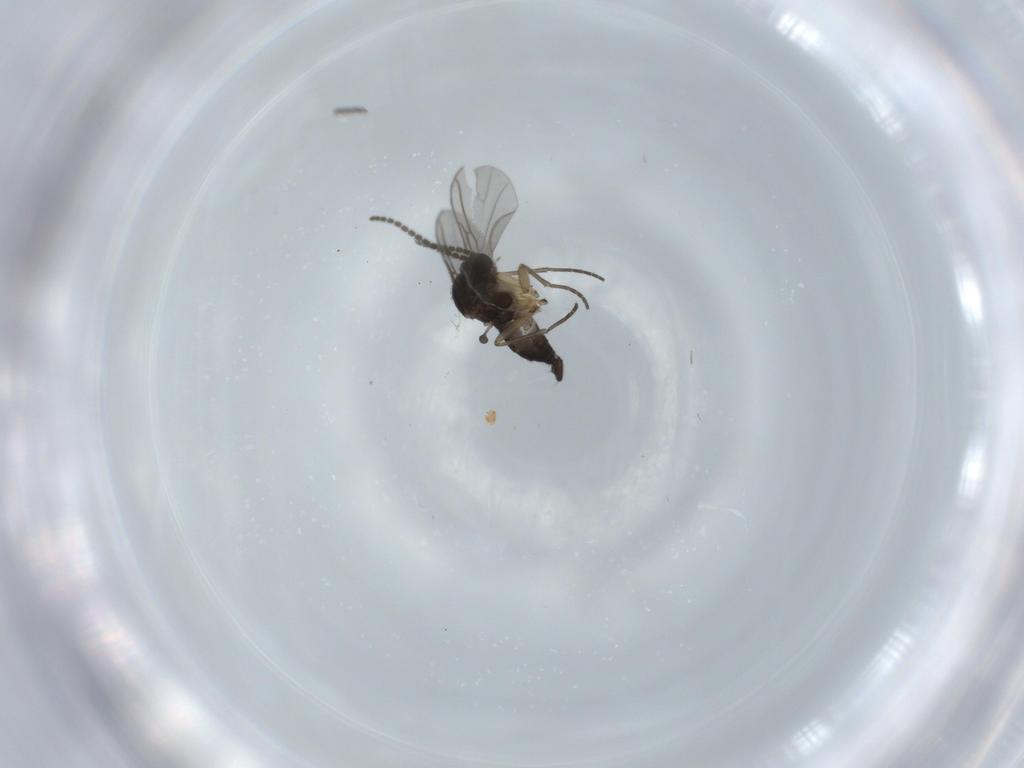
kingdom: Animalia
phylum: Arthropoda
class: Insecta
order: Diptera
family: Sciaridae
